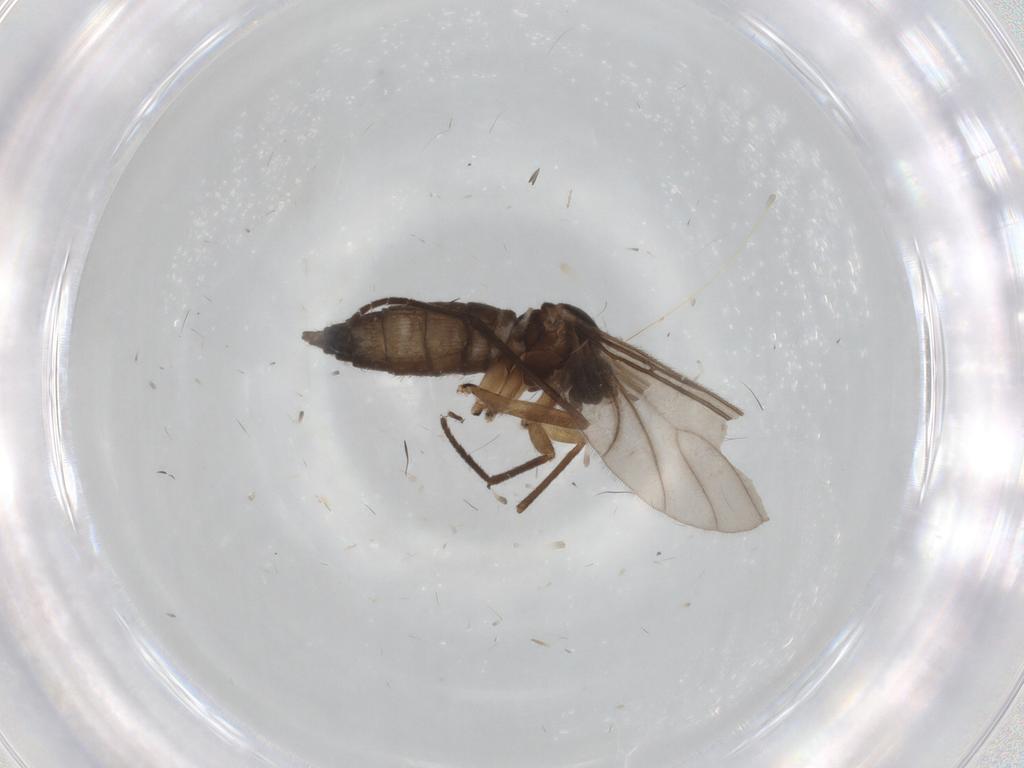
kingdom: Animalia
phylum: Arthropoda
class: Insecta
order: Diptera
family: Sciaridae
